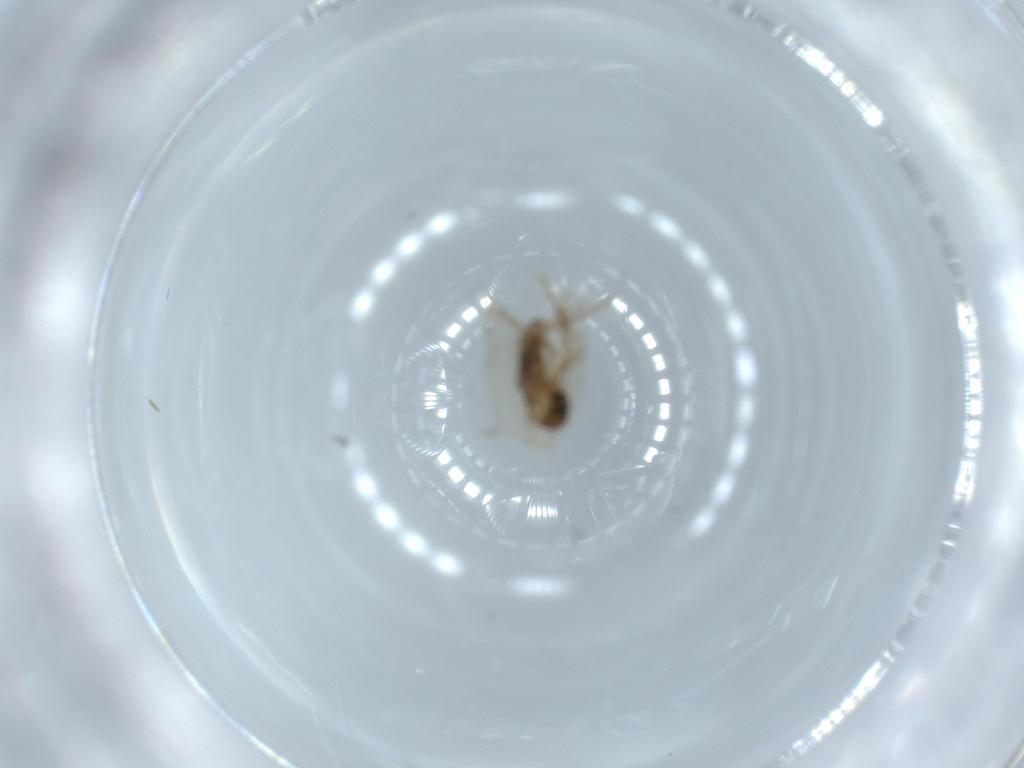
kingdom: Animalia
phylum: Arthropoda
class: Insecta
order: Diptera
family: Psychodidae
